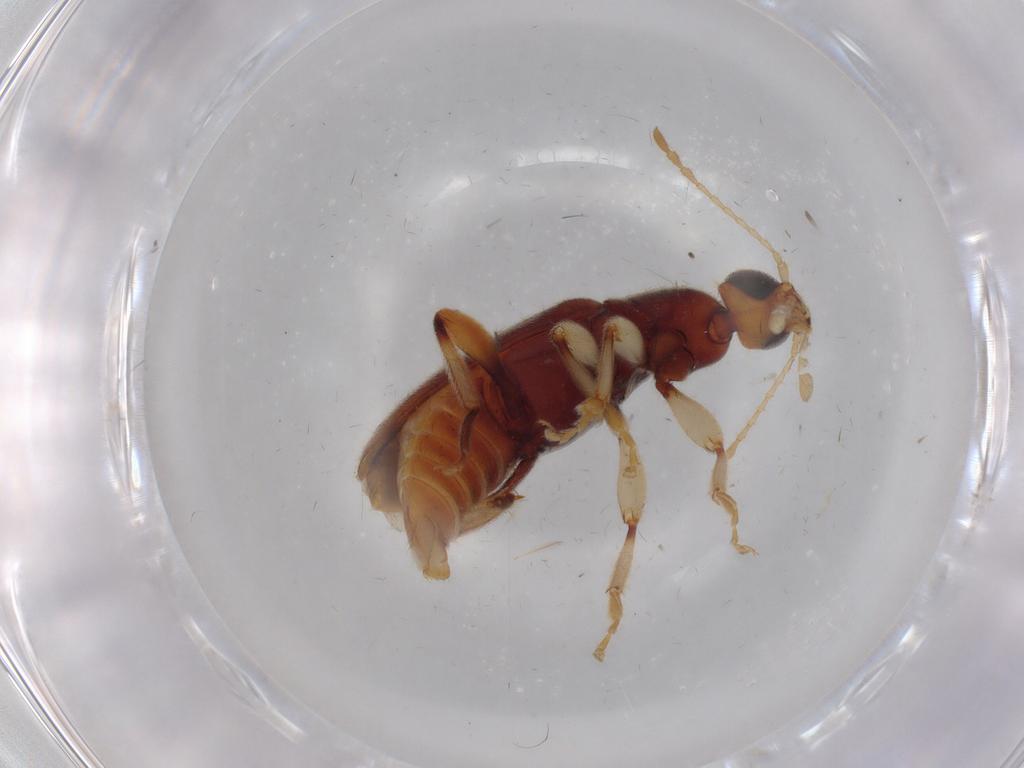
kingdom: Animalia
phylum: Arthropoda
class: Insecta
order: Coleoptera
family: Anthicidae
